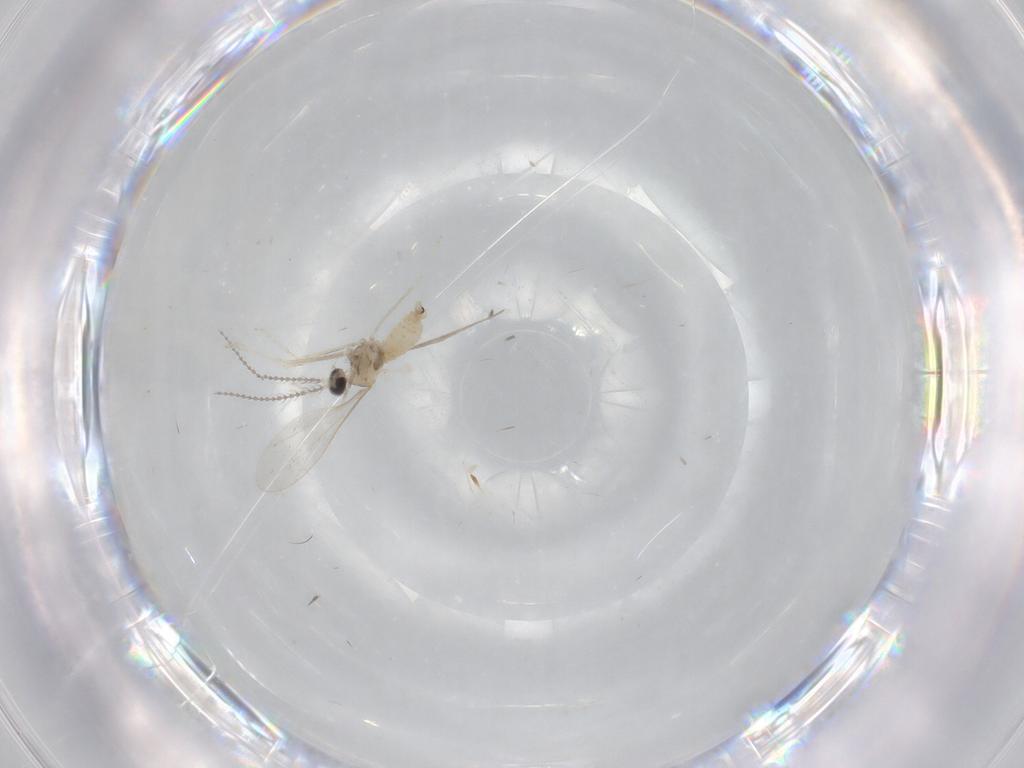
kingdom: Animalia
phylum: Arthropoda
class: Insecta
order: Diptera
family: Cecidomyiidae
